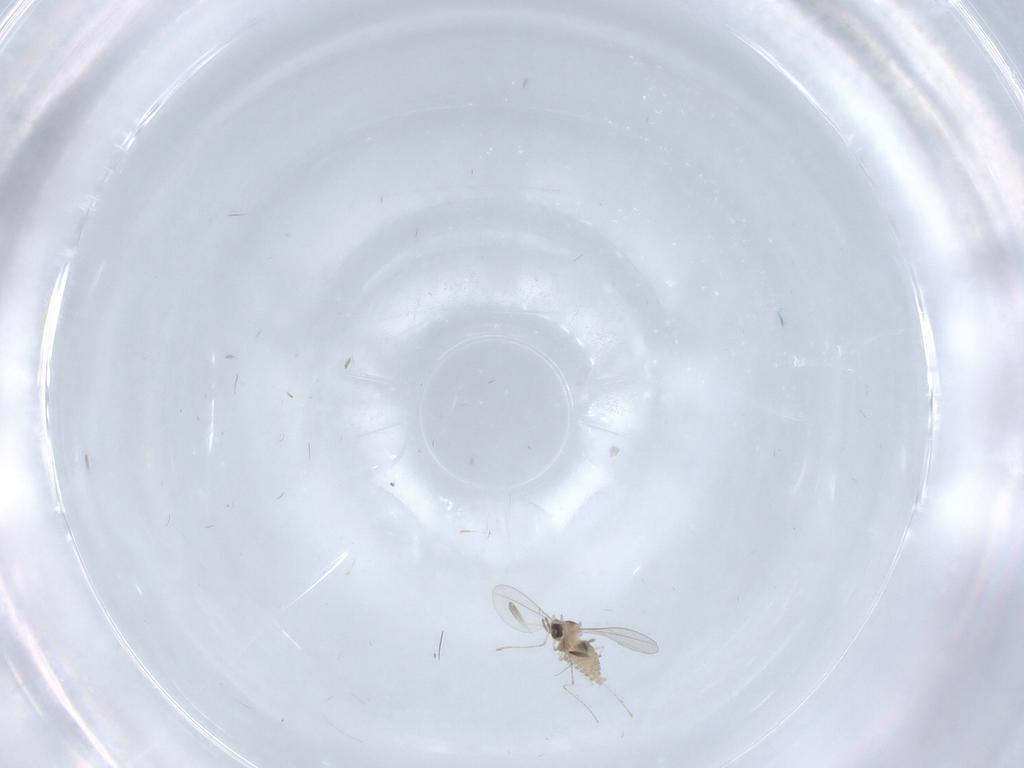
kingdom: Animalia
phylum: Arthropoda
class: Insecta
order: Diptera
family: Cecidomyiidae
